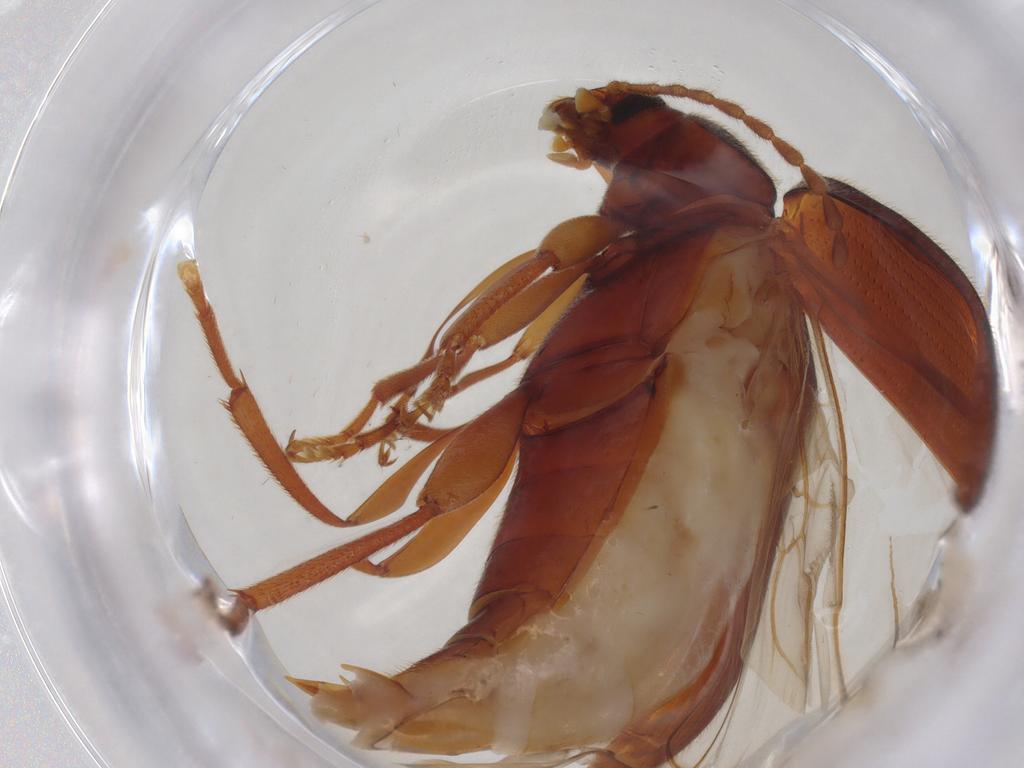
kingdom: Animalia
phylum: Arthropoda
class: Insecta
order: Coleoptera
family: Tenebrionidae
